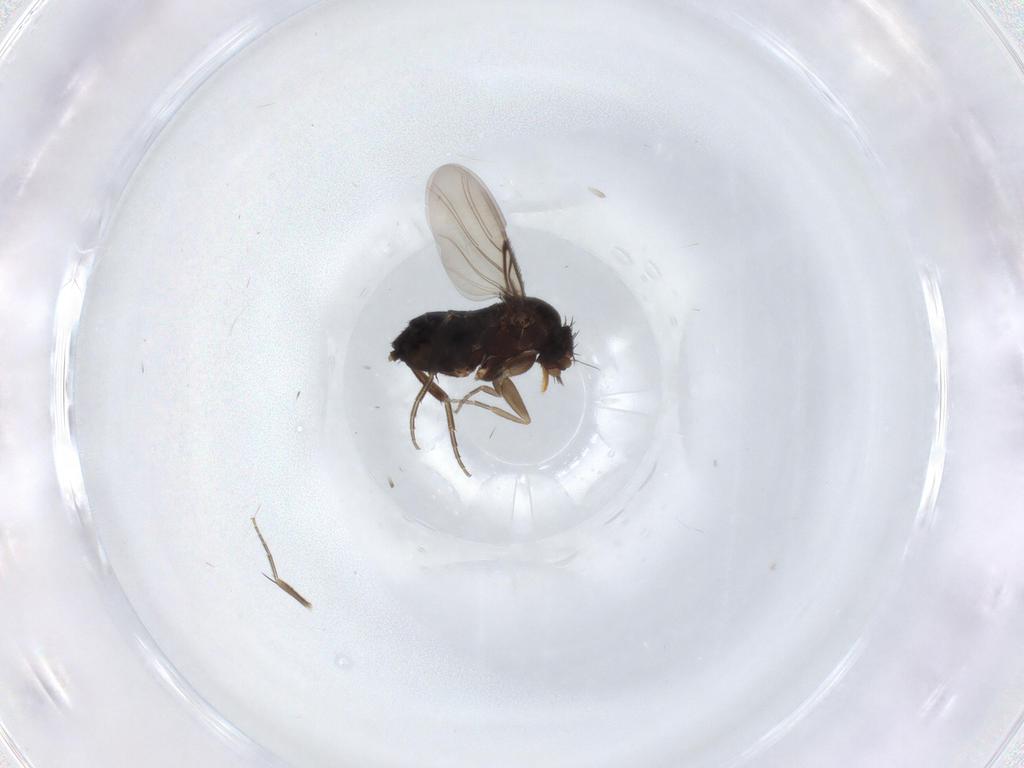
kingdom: Animalia
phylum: Arthropoda
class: Insecta
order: Diptera
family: Phoridae
